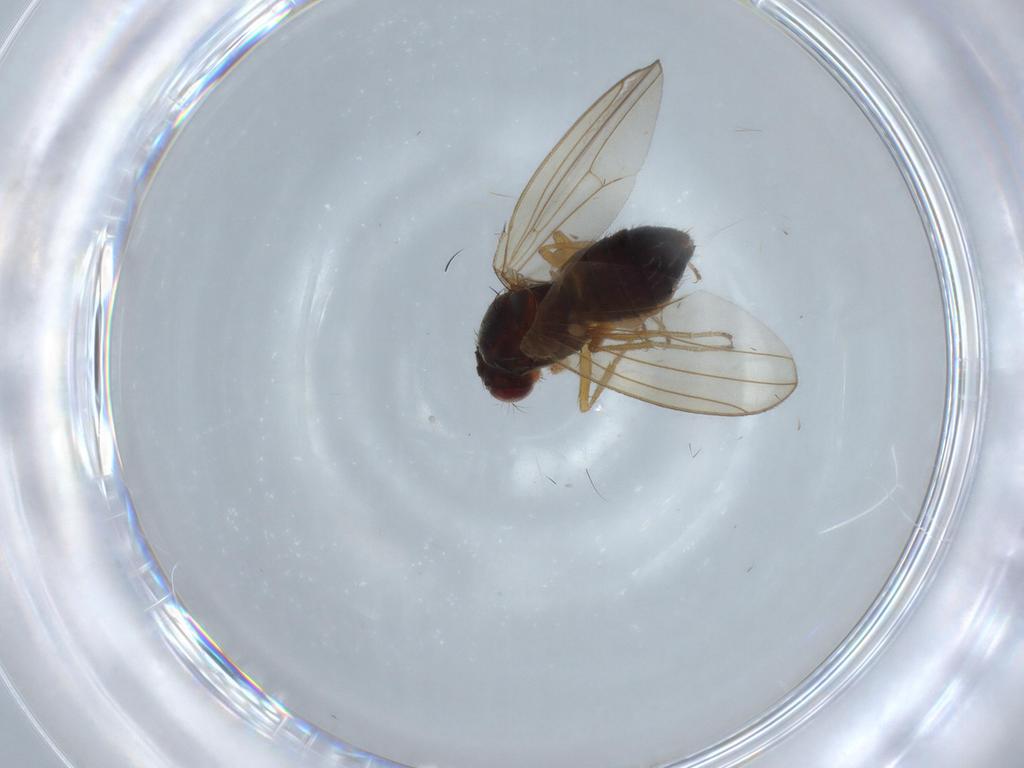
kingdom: Animalia
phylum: Arthropoda
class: Insecta
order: Diptera
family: Drosophilidae
